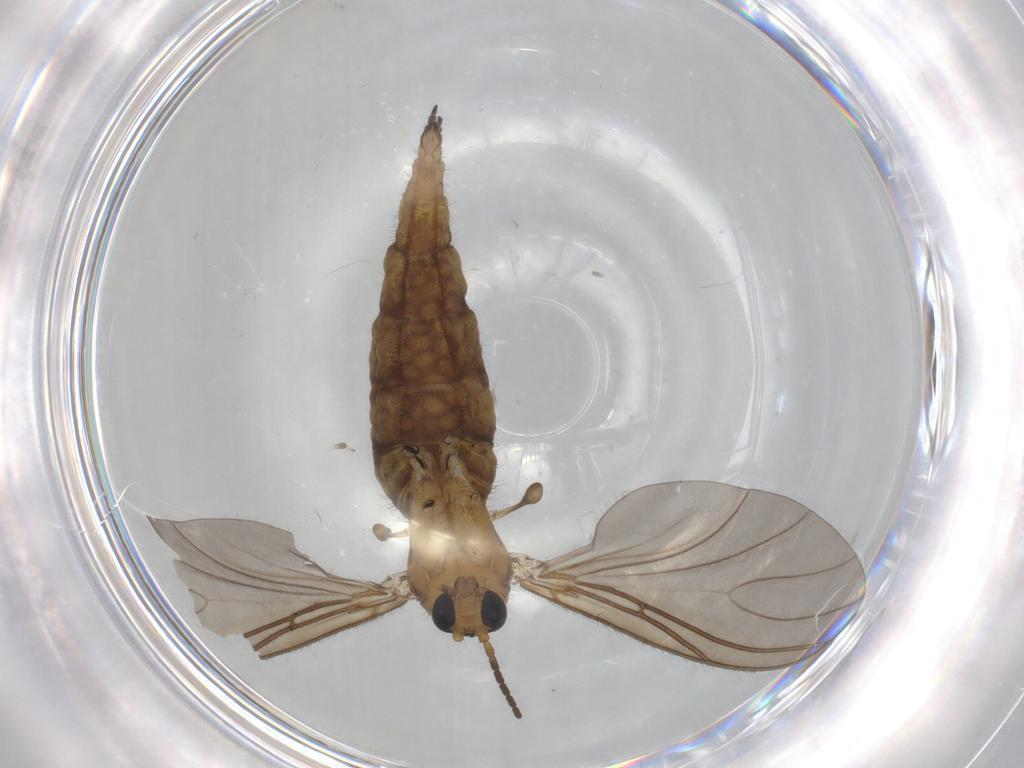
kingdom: Animalia
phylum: Arthropoda
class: Insecta
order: Diptera
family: Sciaridae
